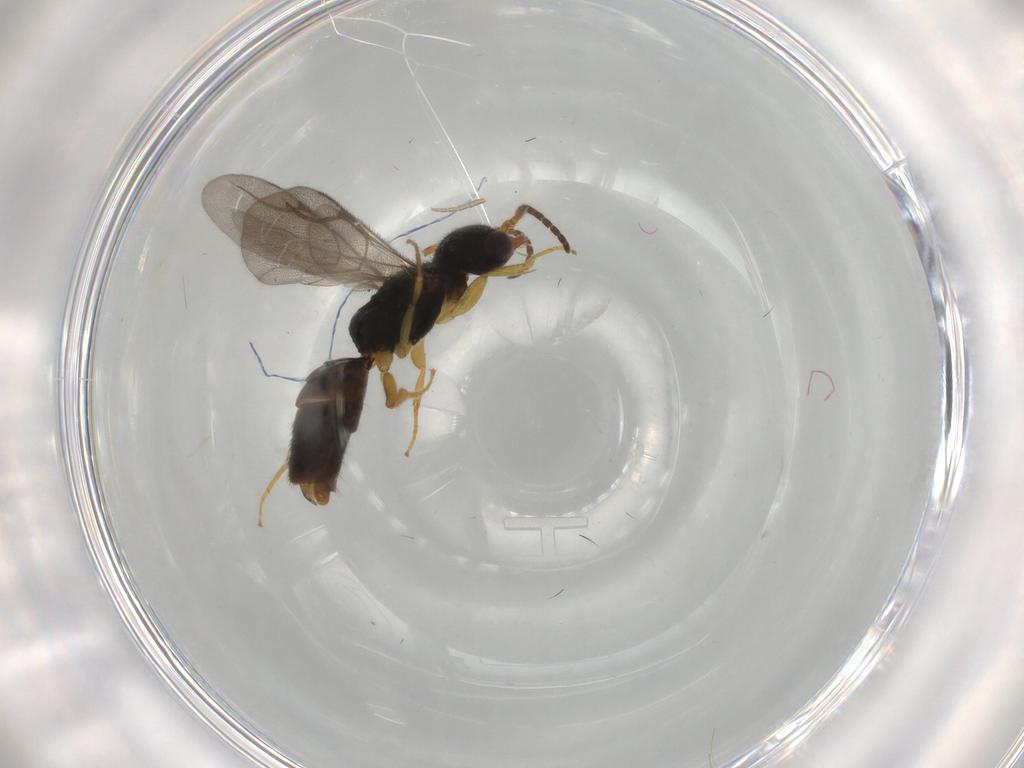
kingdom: Animalia
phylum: Arthropoda
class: Insecta
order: Hymenoptera
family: Bethylidae
